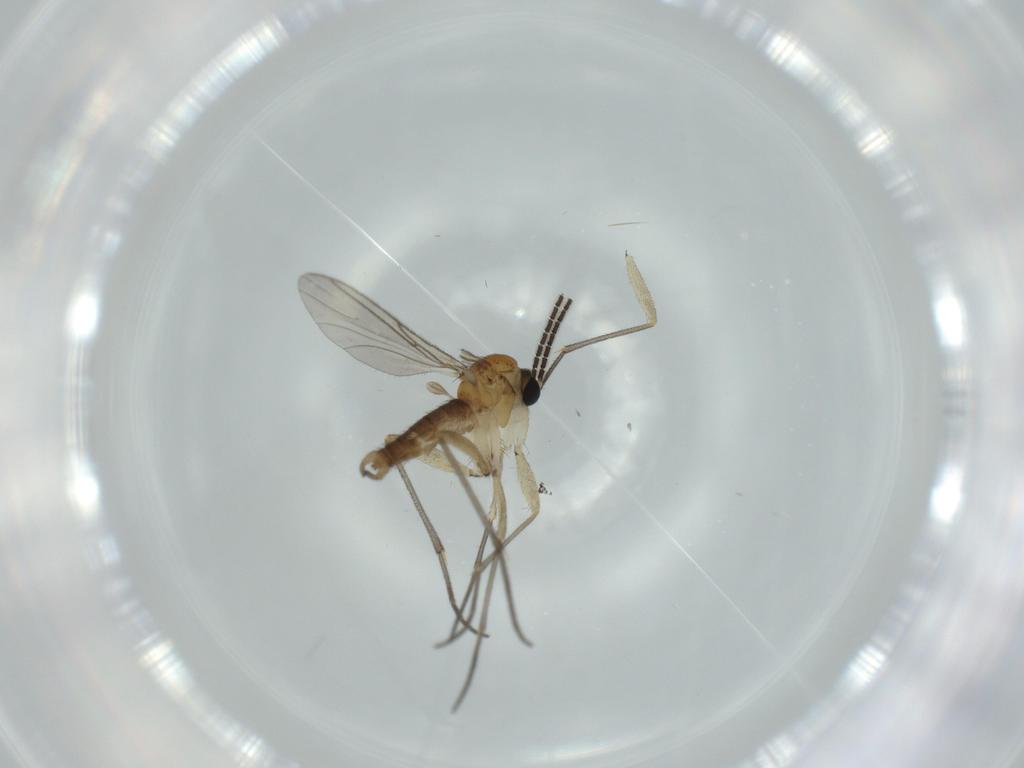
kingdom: Animalia
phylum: Arthropoda
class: Insecta
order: Diptera
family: Sciaridae
